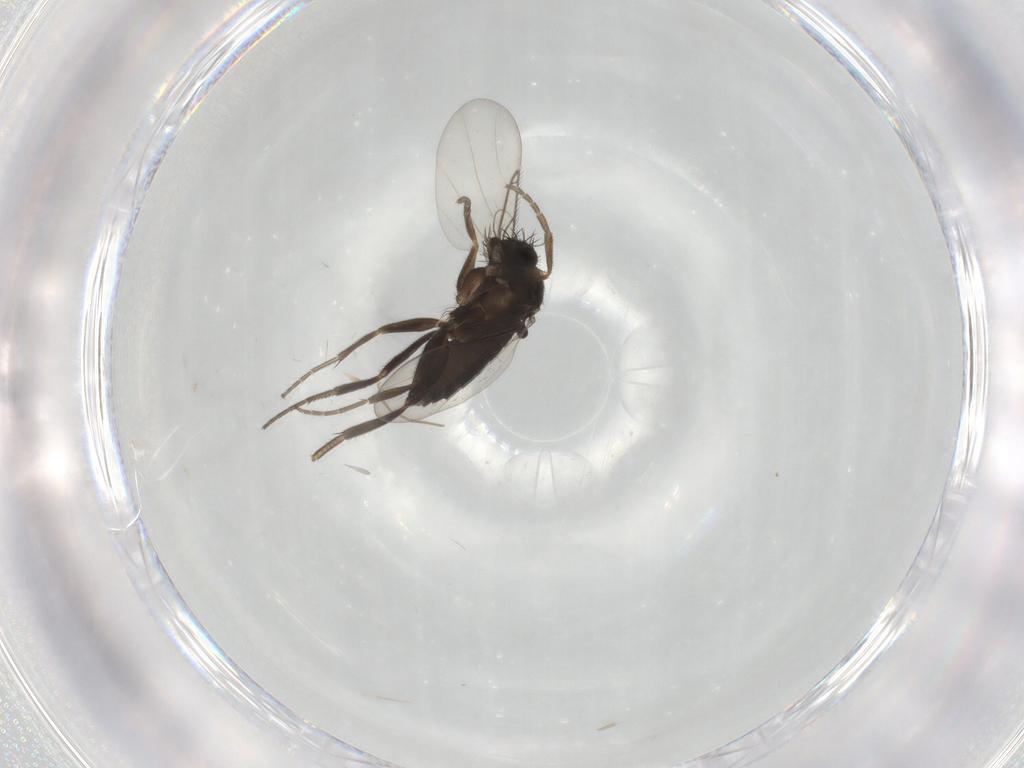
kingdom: Animalia
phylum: Arthropoda
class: Insecta
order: Diptera
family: Phoridae
